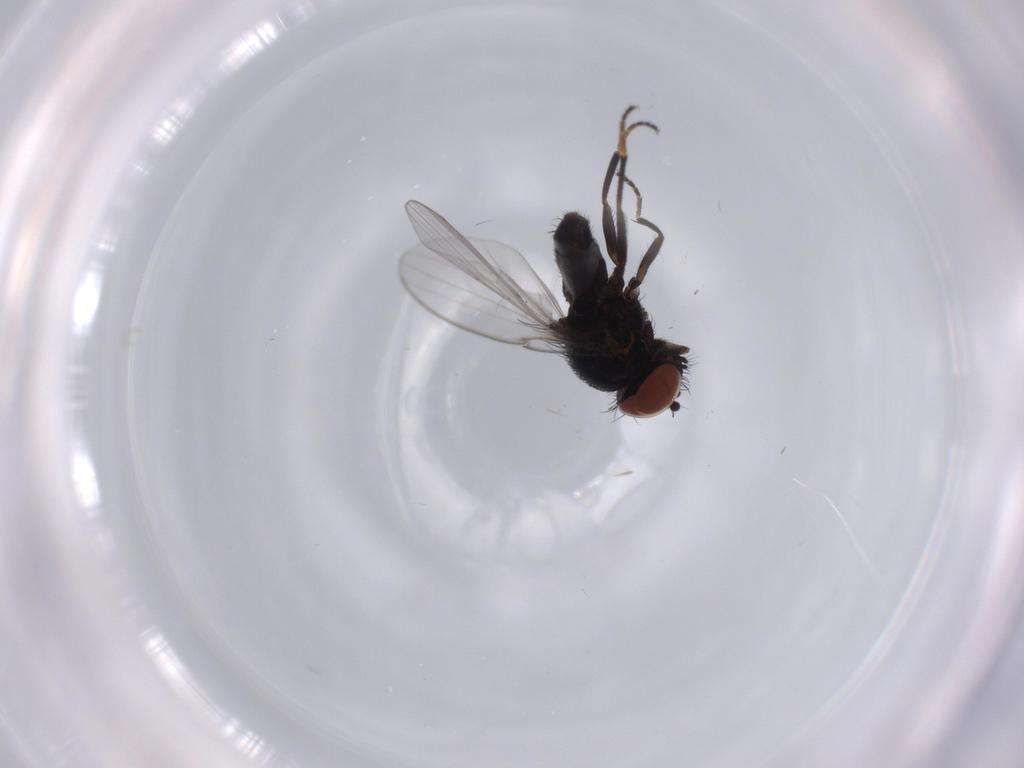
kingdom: Animalia
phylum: Arthropoda
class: Insecta
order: Diptera
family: Milichiidae
